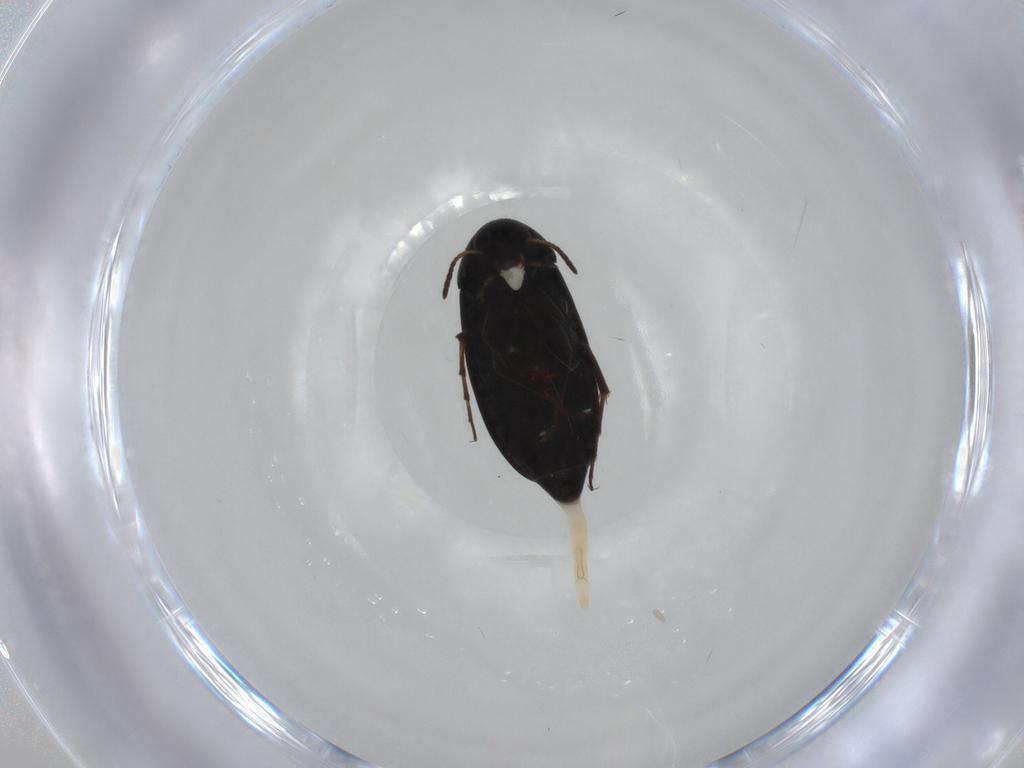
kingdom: Animalia
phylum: Arthropoda
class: Insecta
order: Coleoptera
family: Scraptiidae
